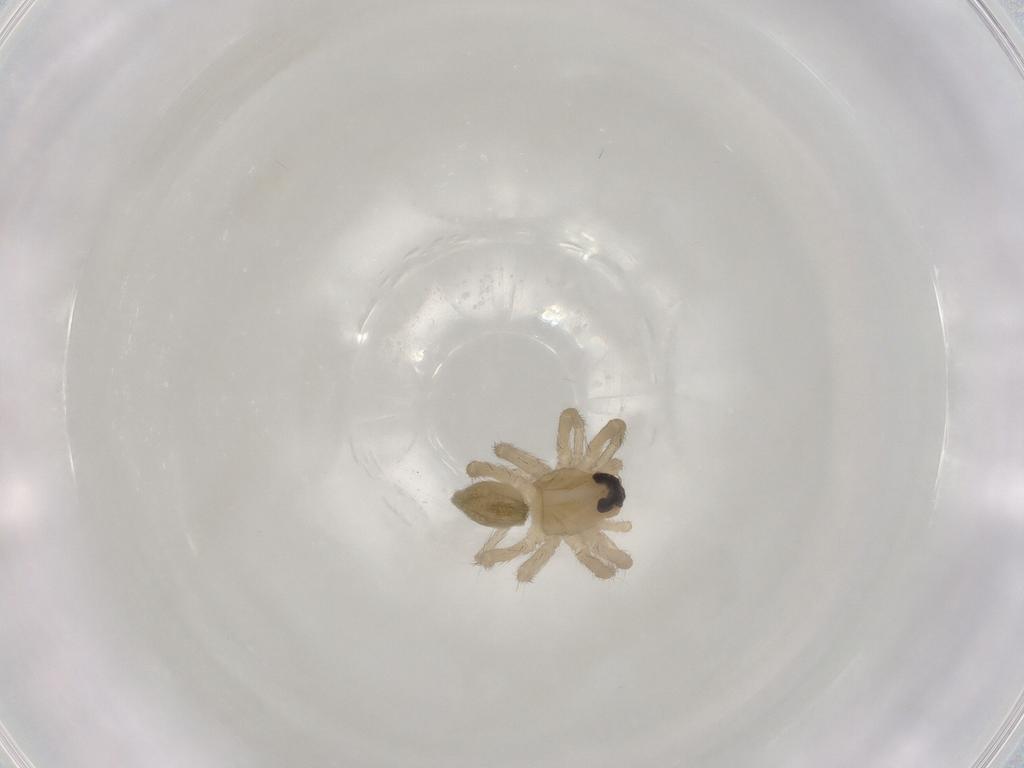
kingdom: Animalia
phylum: Arthropoda
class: Arachnida
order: Araneae
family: Lycosidae
